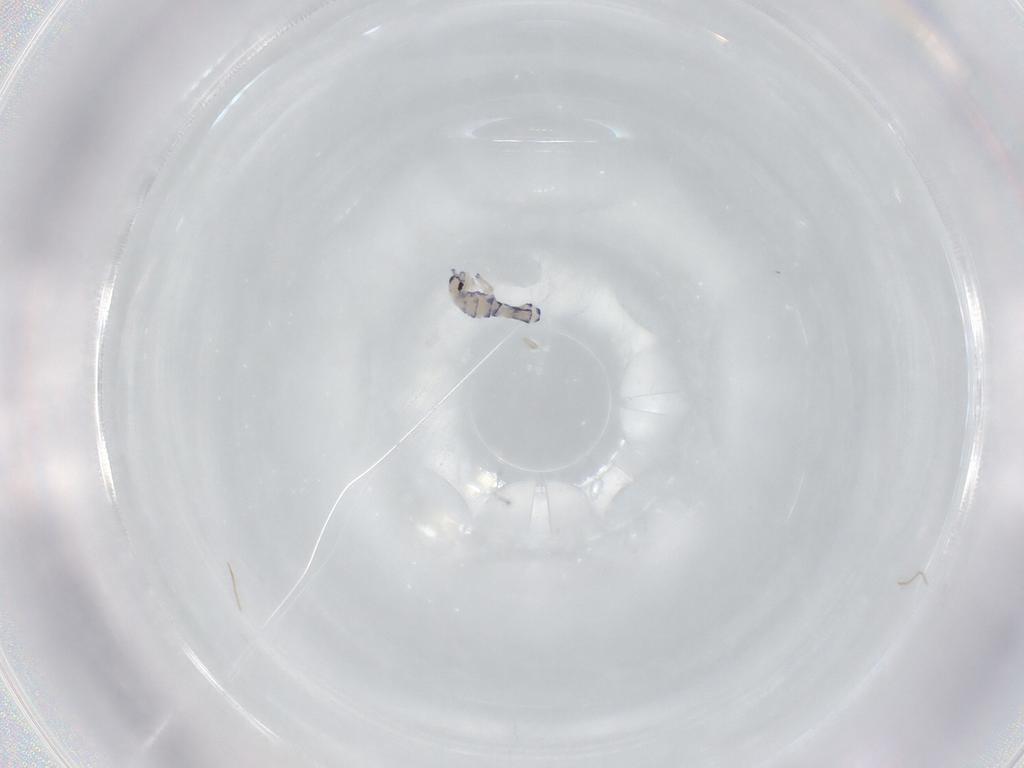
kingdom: Animalia
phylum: Arthropoda
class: Collembola
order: Entomobryomorpha
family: Entomobryidae
